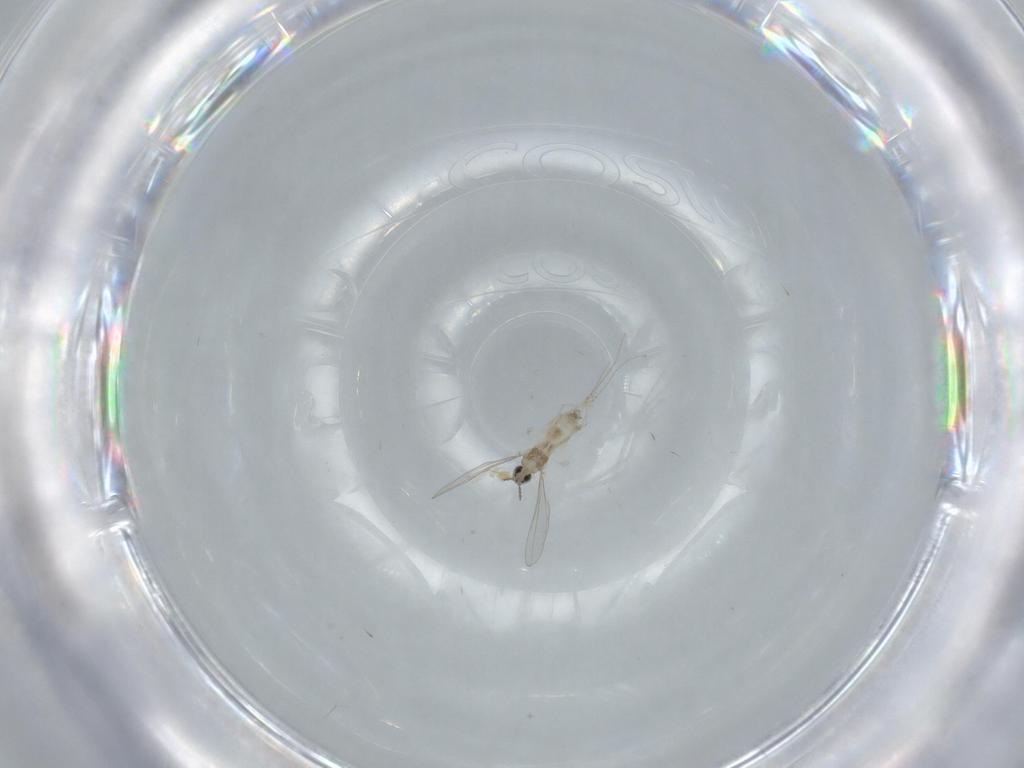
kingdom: Animalia
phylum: Arthropoda
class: Insecta
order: Diptera
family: Cecidomyiidae
